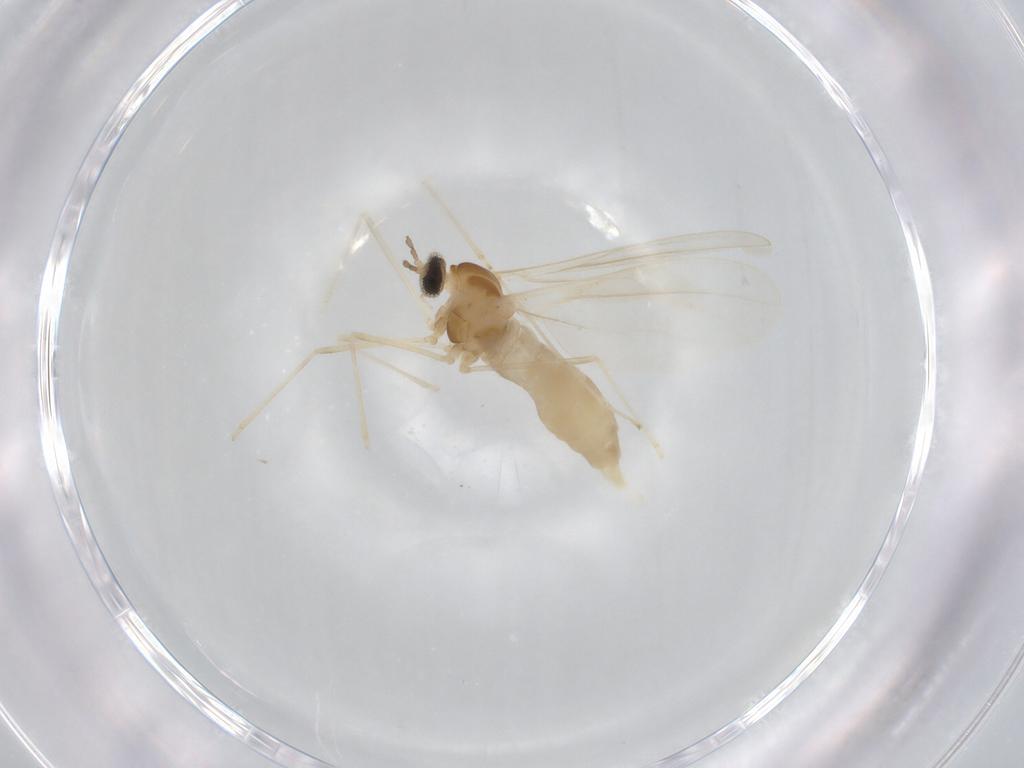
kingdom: Animalia
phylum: Arthropoda
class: Insecta
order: Diptera
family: Cecidomyiidae
